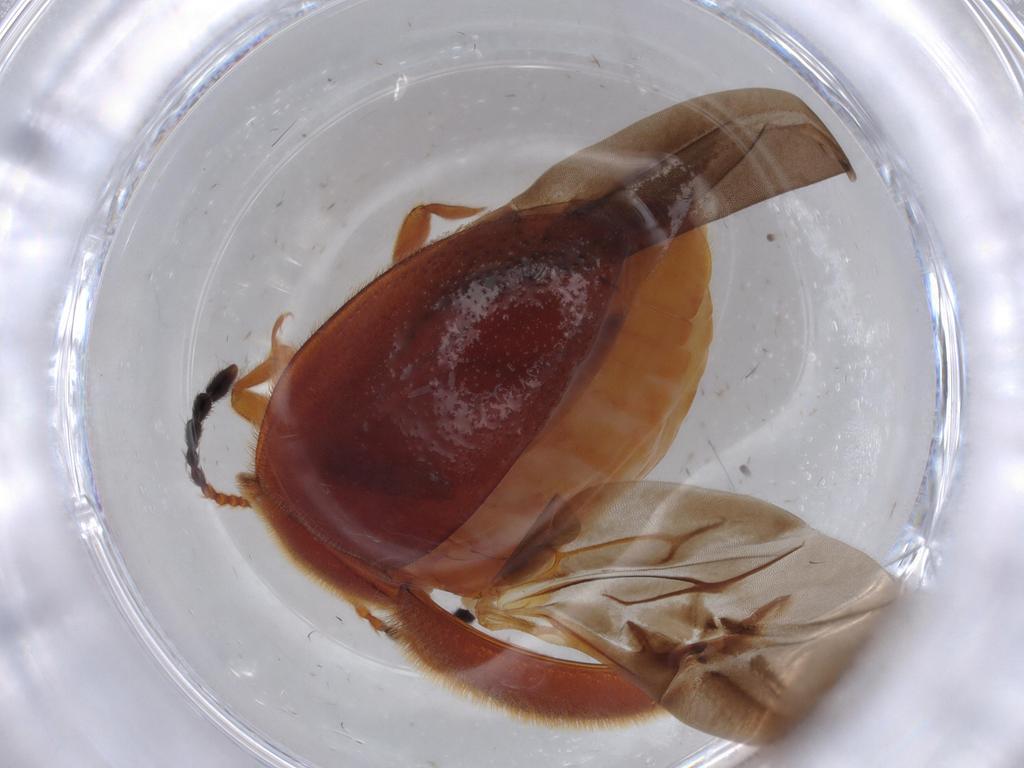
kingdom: Animalia
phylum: Arthropoda
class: Insecta
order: Coleoptera
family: Endomychidae
